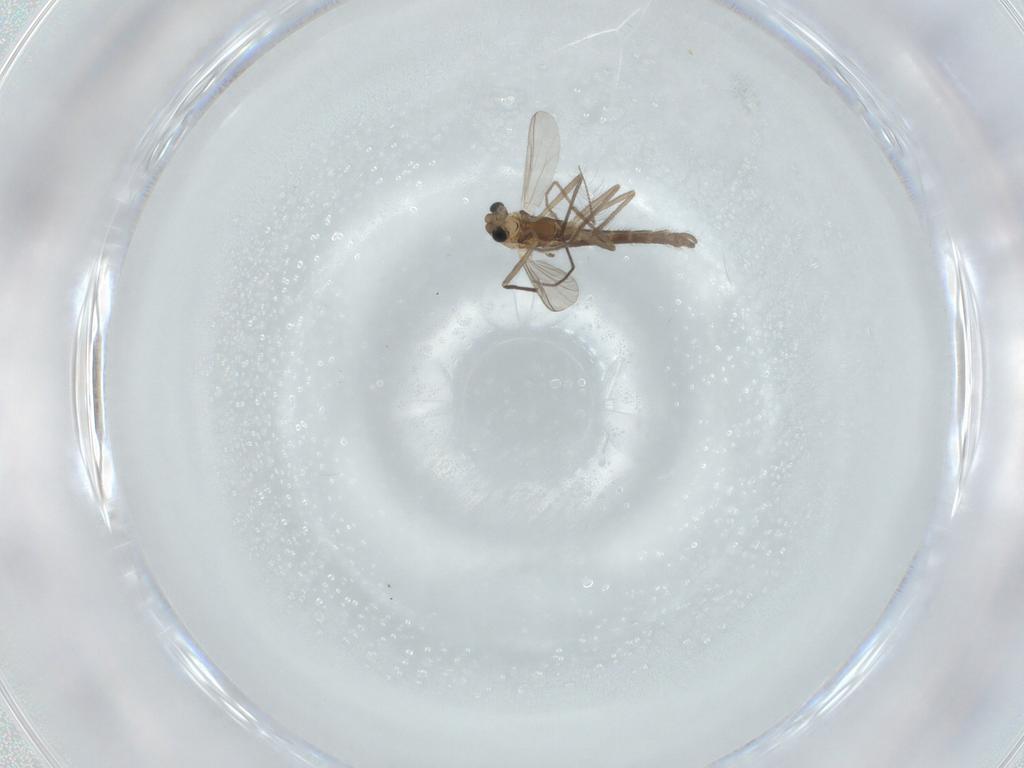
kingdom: Animalia
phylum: Arthropoda
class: Insecta
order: Diptera
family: Chironomidae
